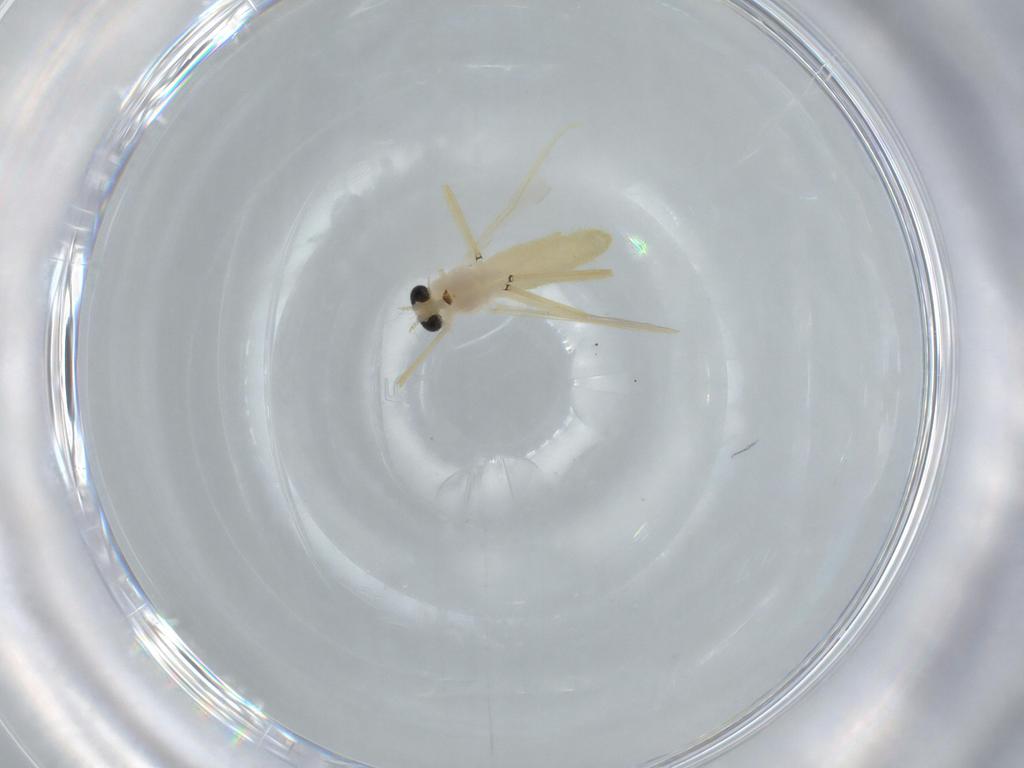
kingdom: Animalia
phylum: Arthropoda
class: Insecta
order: Diptera
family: Chironomidae
